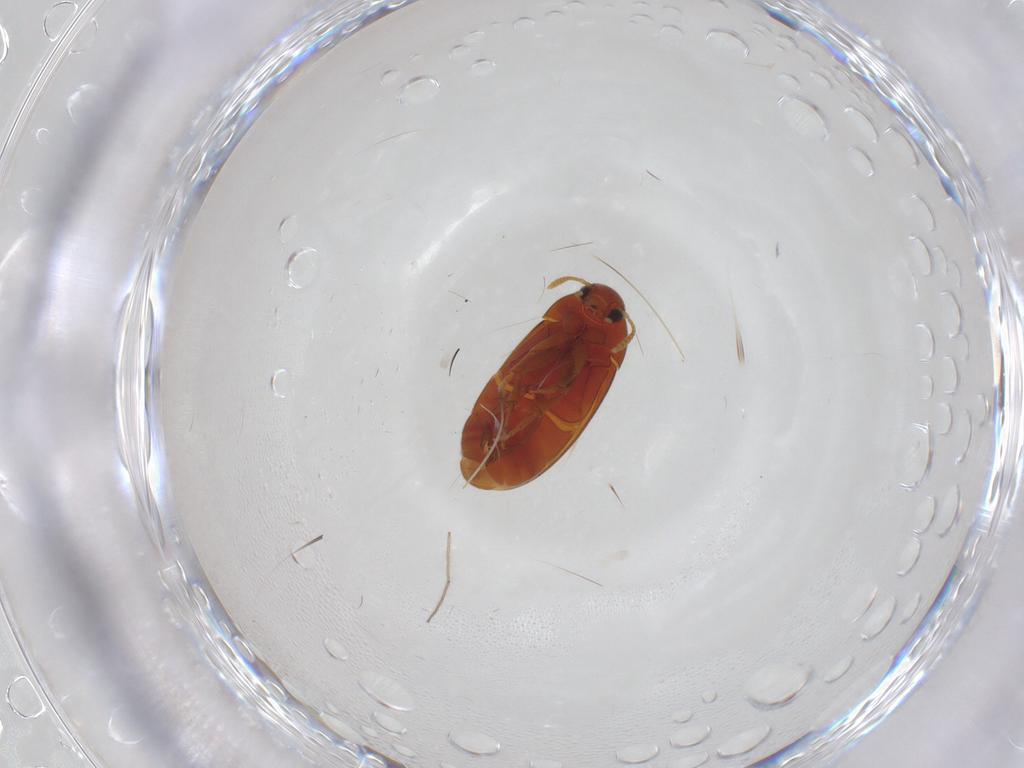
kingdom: Animalia
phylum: Arthropoda
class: Insecta
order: Coleoptera
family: Scraptiidae
